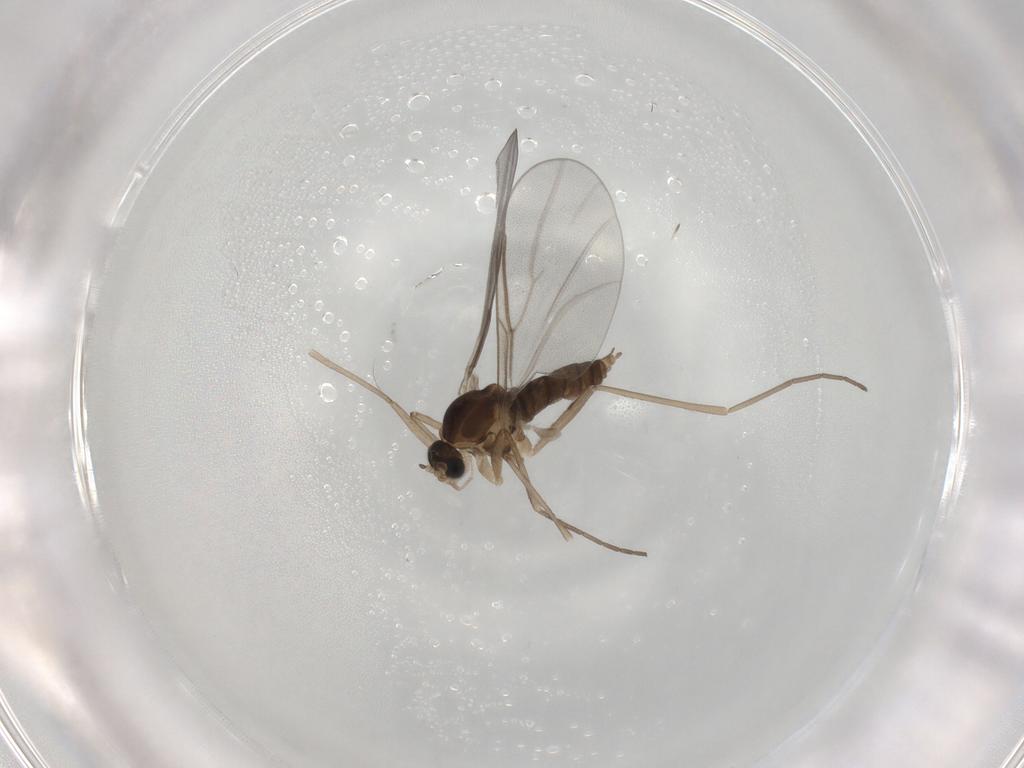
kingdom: Animalia
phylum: Arthropoda
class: Insecta
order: Diptera
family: Cecidomyiidae
